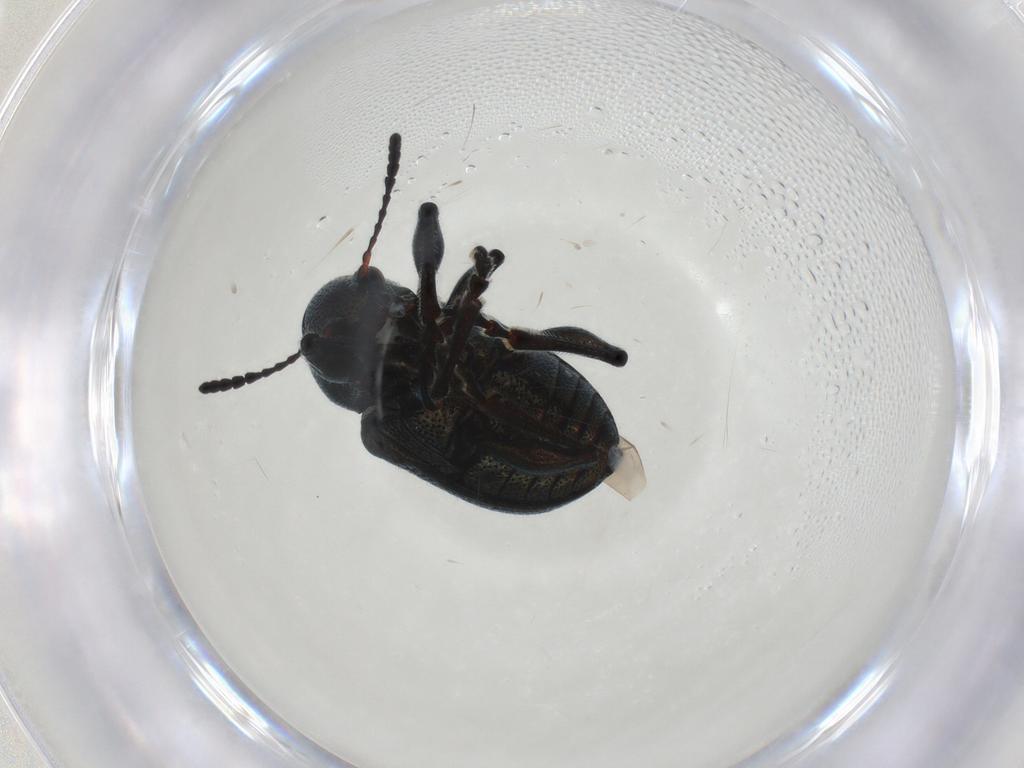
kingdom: Animalia
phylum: Arthropoda
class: Insecta
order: Coleoptera
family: Chrysomelidae
